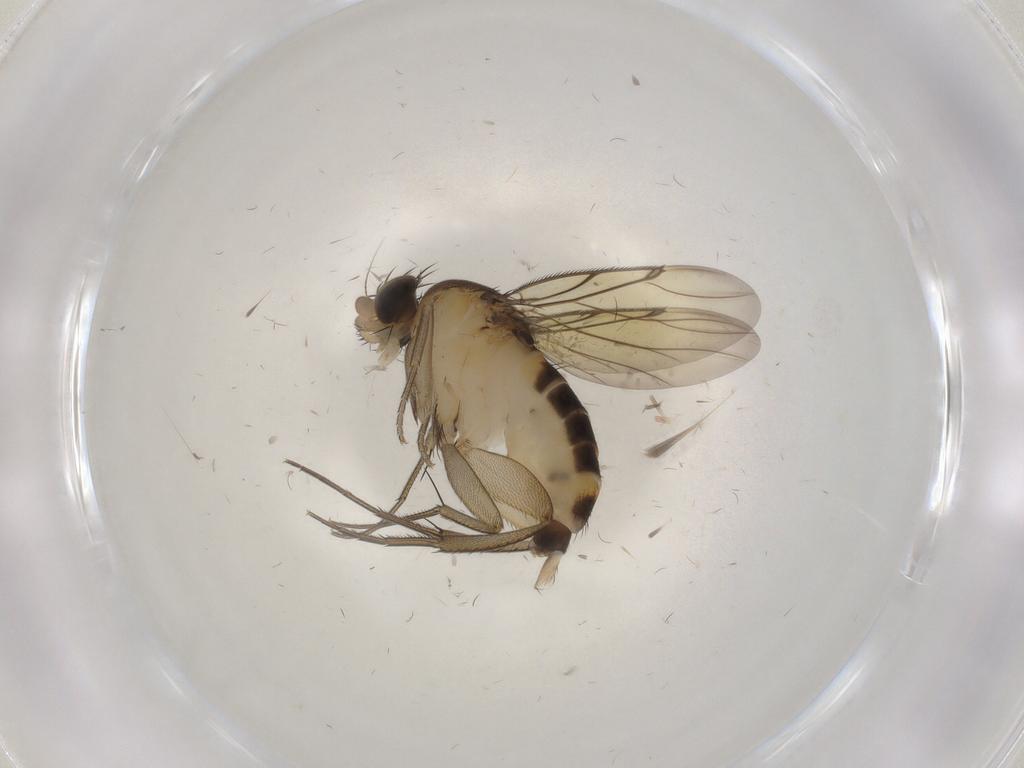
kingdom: Animalia
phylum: Arthropoda
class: Insecta
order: Diptera
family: Phoridae
